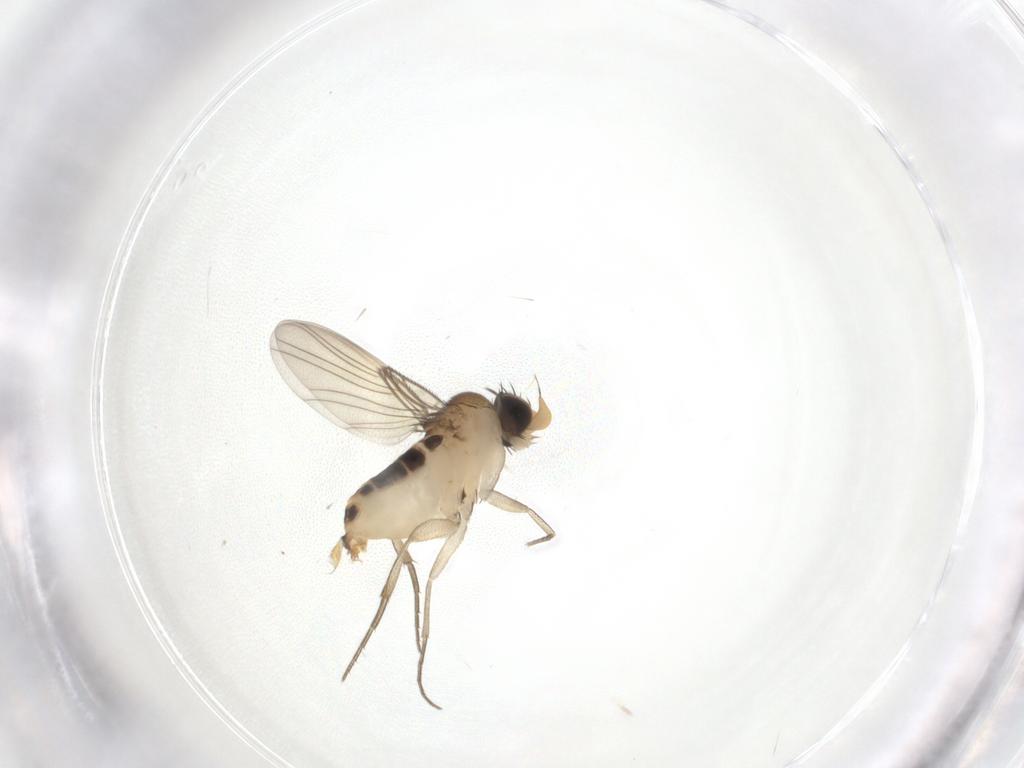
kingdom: Animalia
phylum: Arthropoda
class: Insecta
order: Diptera
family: Phoridae
